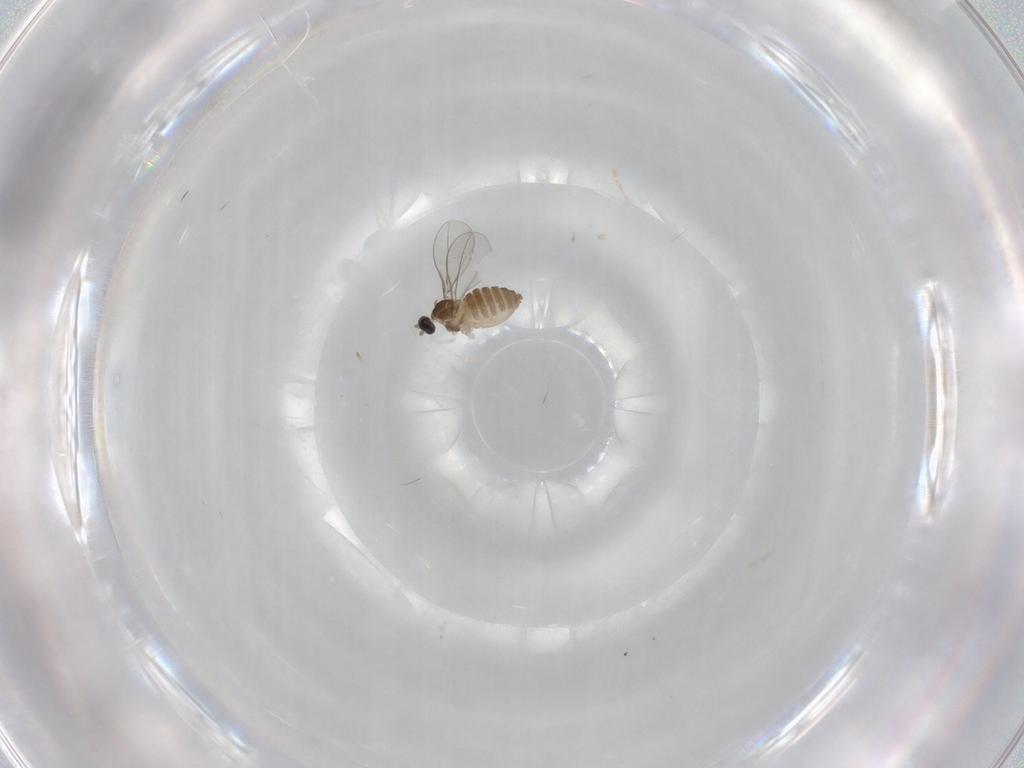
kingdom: Animalia
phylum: Arthropoda
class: Insecta
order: Diptera
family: Cecidomyiidae
